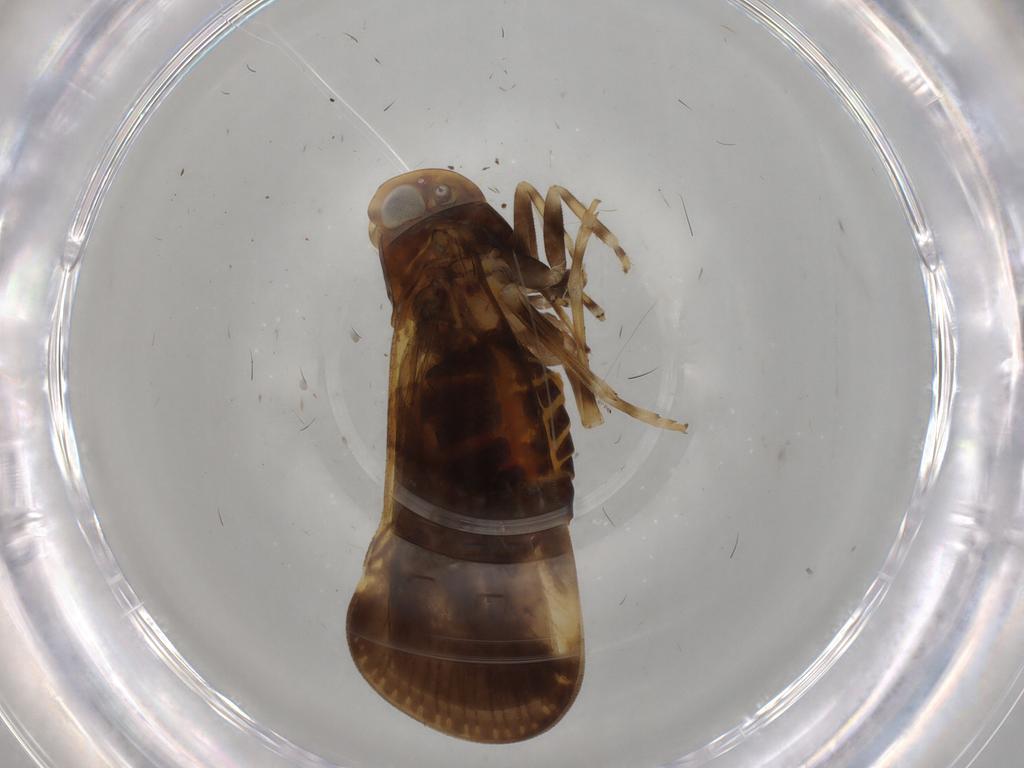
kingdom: Animalia
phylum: Arthropoda
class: Insecta
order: Hemiptera
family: Cixiidae
